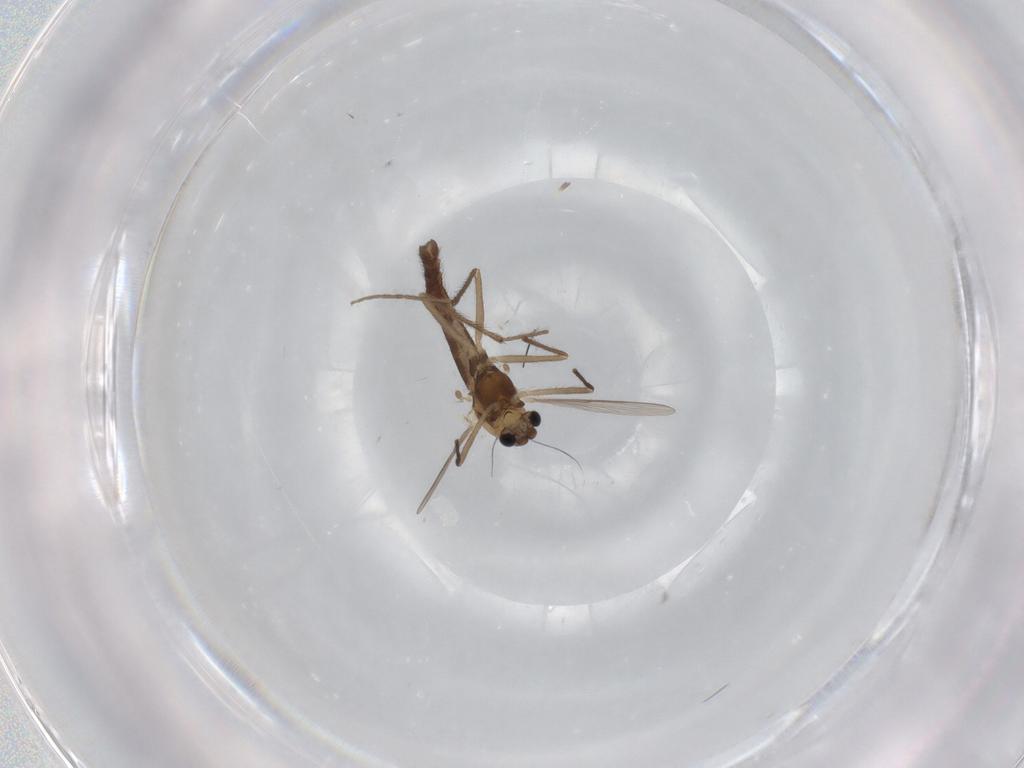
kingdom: Animalia
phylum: Arthropoda
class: Insecta
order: Diptera
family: Chironomidae
